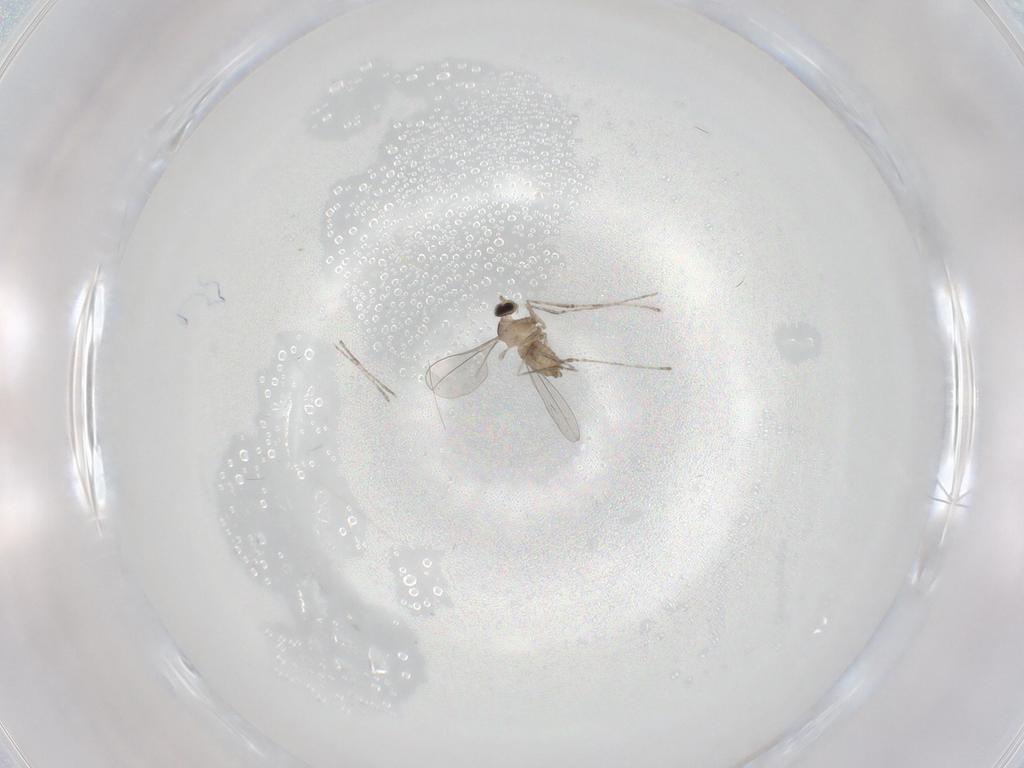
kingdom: Animalia
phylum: Arthropoda
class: Insecta
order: Diptera
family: Cecidomyiidae
